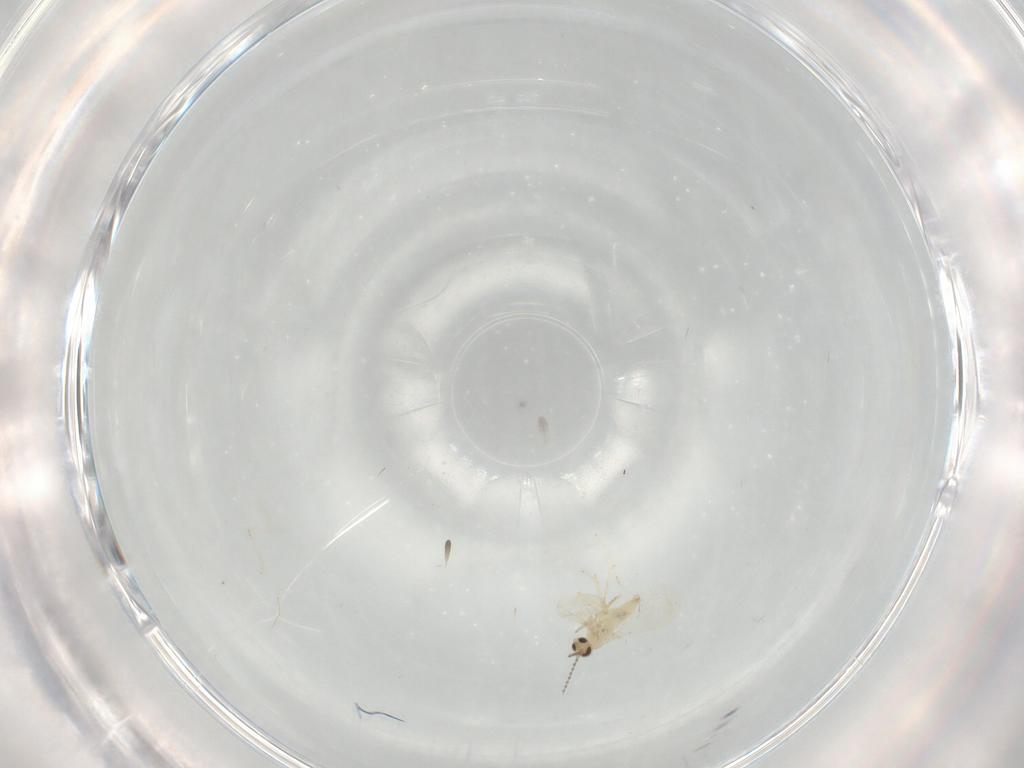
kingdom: Animalia
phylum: Arthropoda
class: Insecta
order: Diptera
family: Cecidomyiidae
